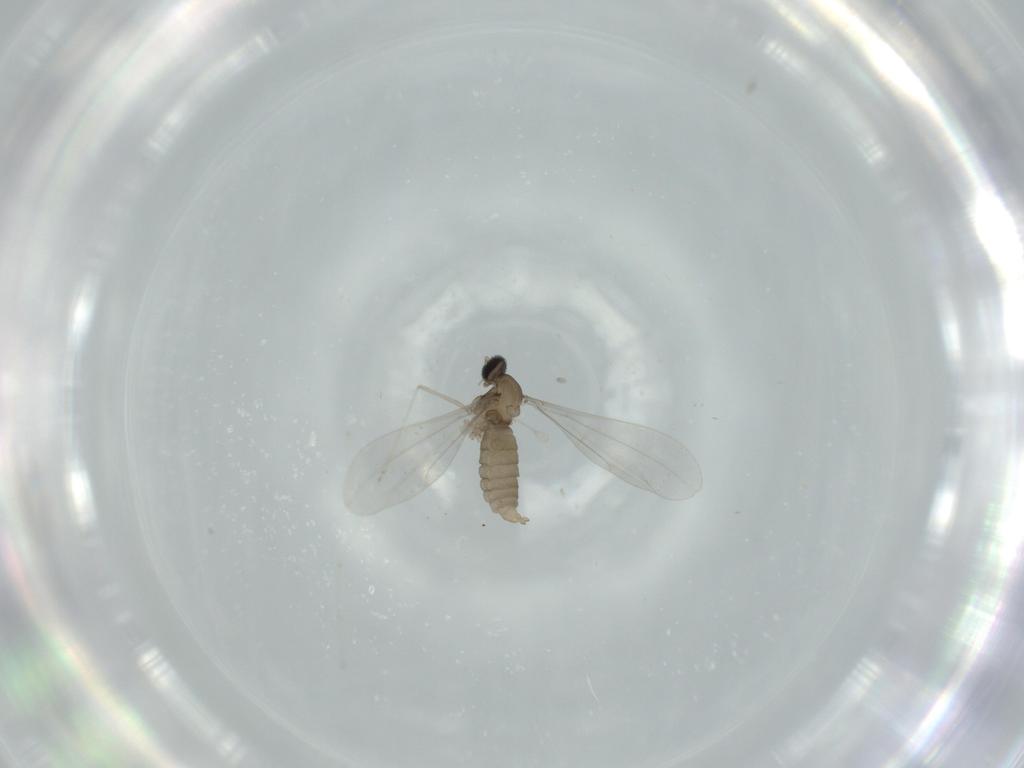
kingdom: Animalia
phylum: Arthropoda
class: Insecta
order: Diptera
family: Cecidomyiidae
